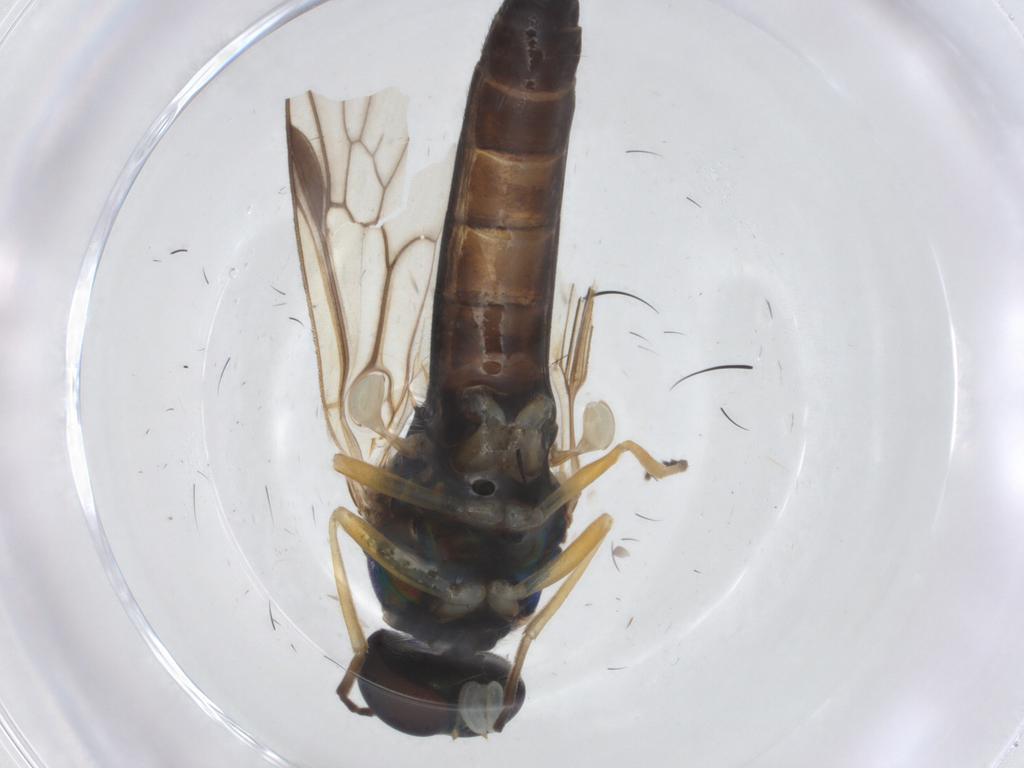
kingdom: Animalia
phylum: Arthropoda
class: Insecta
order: Diptera
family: Stratiomyidae
